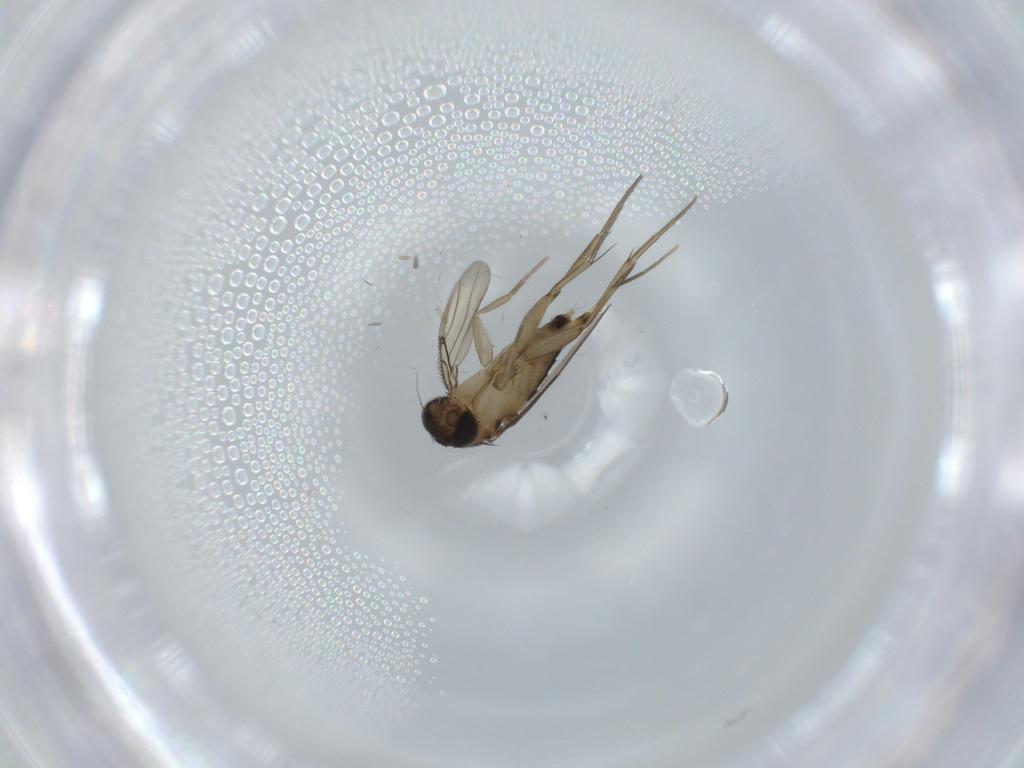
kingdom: Animalia
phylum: Arthropoda
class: Insecta
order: Diptera
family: Phoridae
